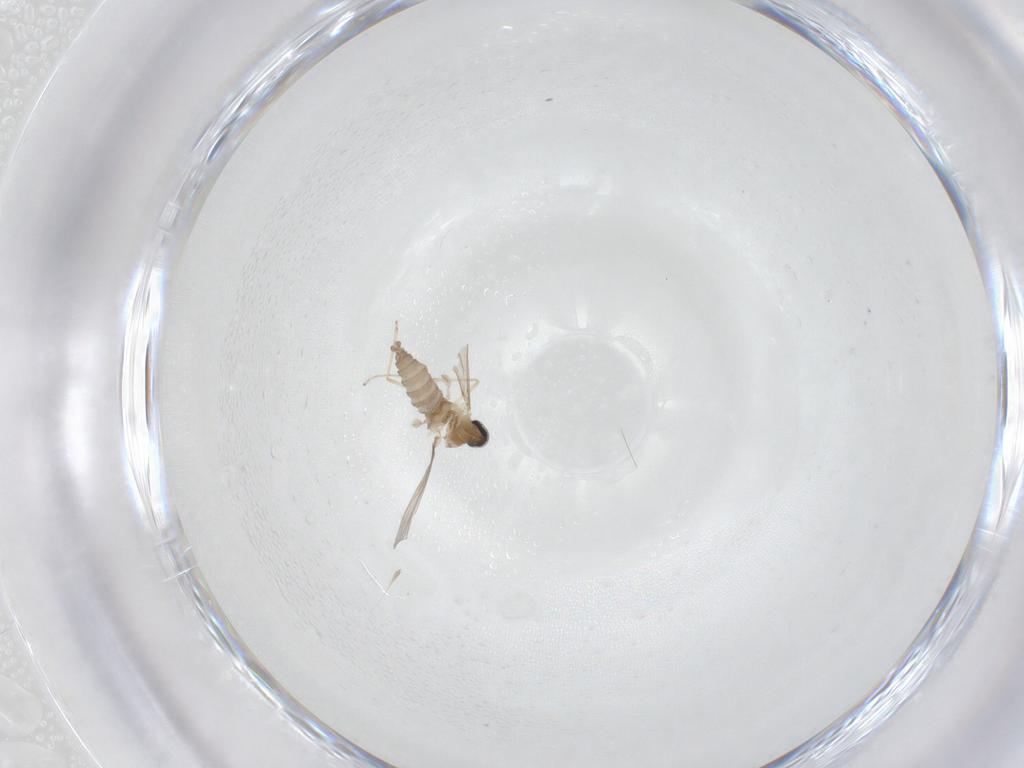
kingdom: Animalia
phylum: Arthropoda
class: Insecta
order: Diptera
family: Cecidomyiidae
